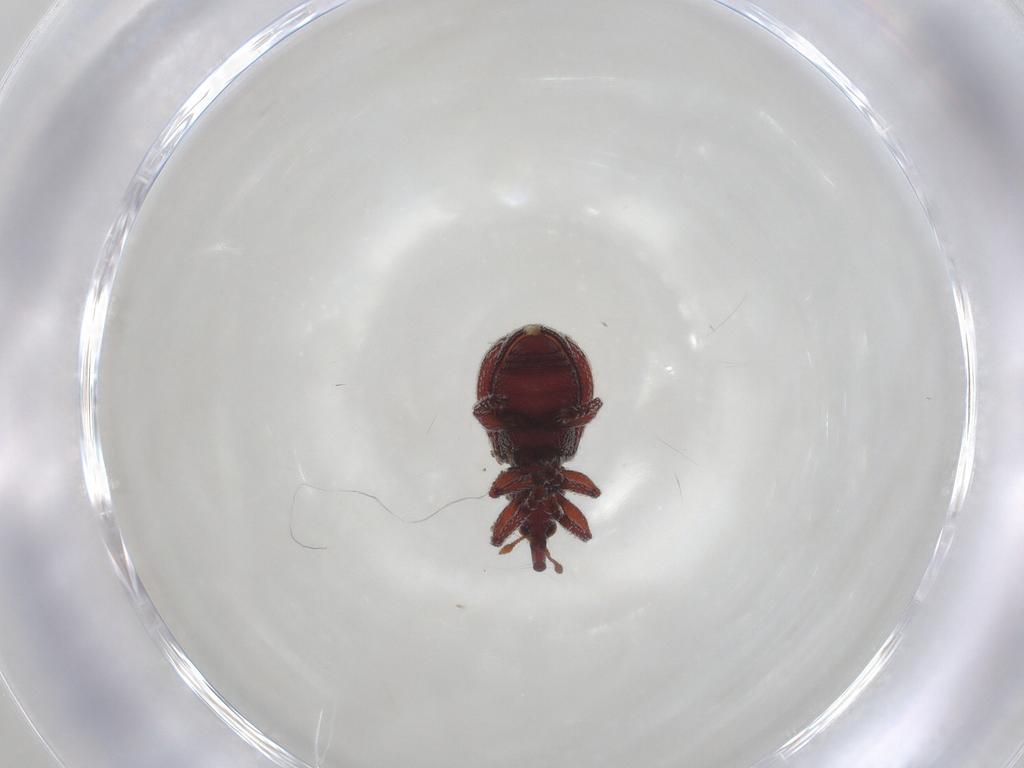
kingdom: Animalia
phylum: Arthropoda
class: Insecta
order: Coleoptera
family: Brentidae
